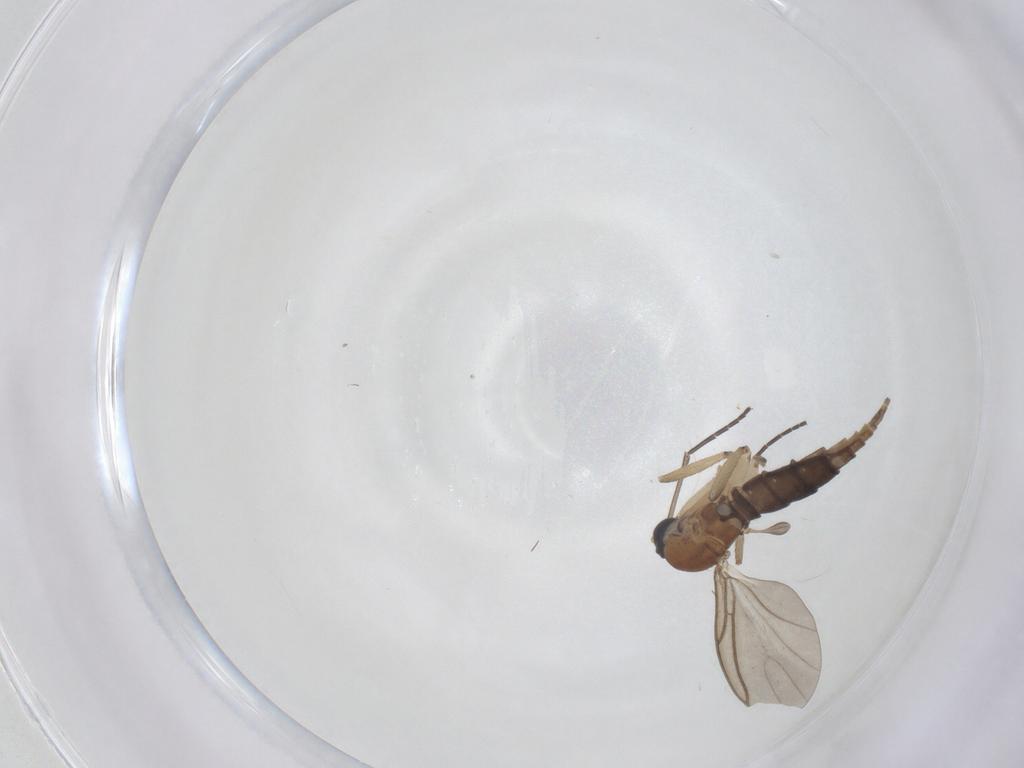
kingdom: Animalia
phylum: Arthropoda
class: Insecta
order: Diptera
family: Sciaridae
